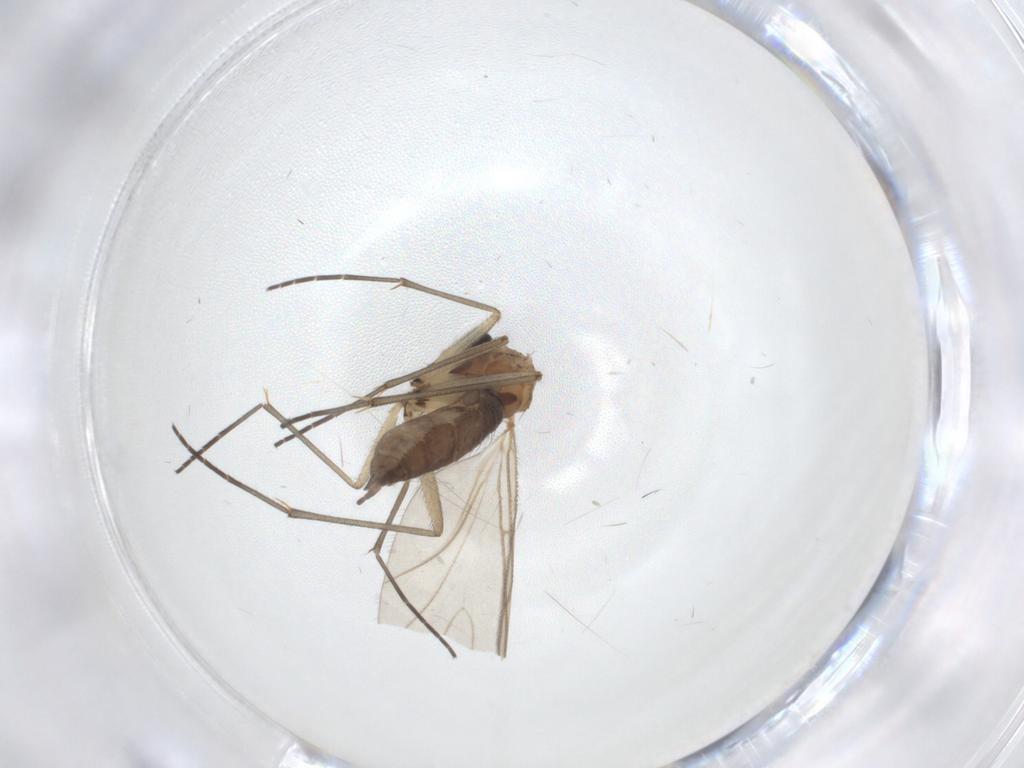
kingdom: Animalia
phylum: Arthropoda
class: Insecta
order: Diptera
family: Sciaridae
